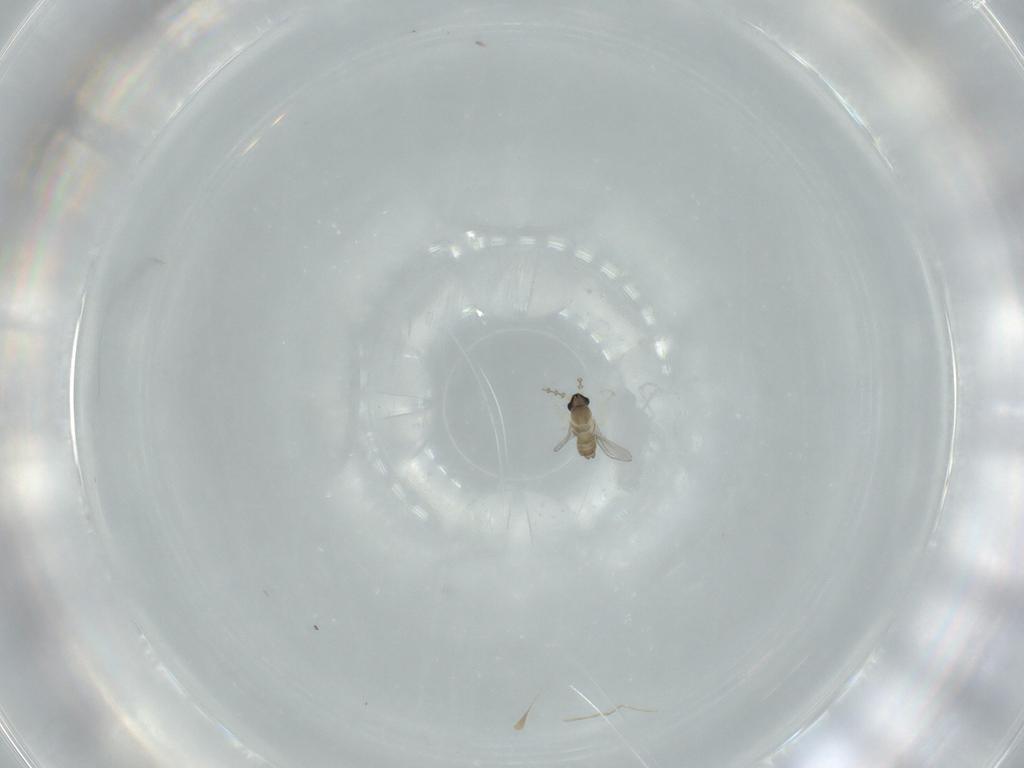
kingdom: Animalia
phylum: Arthropoda
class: Insecta
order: Diptera
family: Cecidomyiidae
